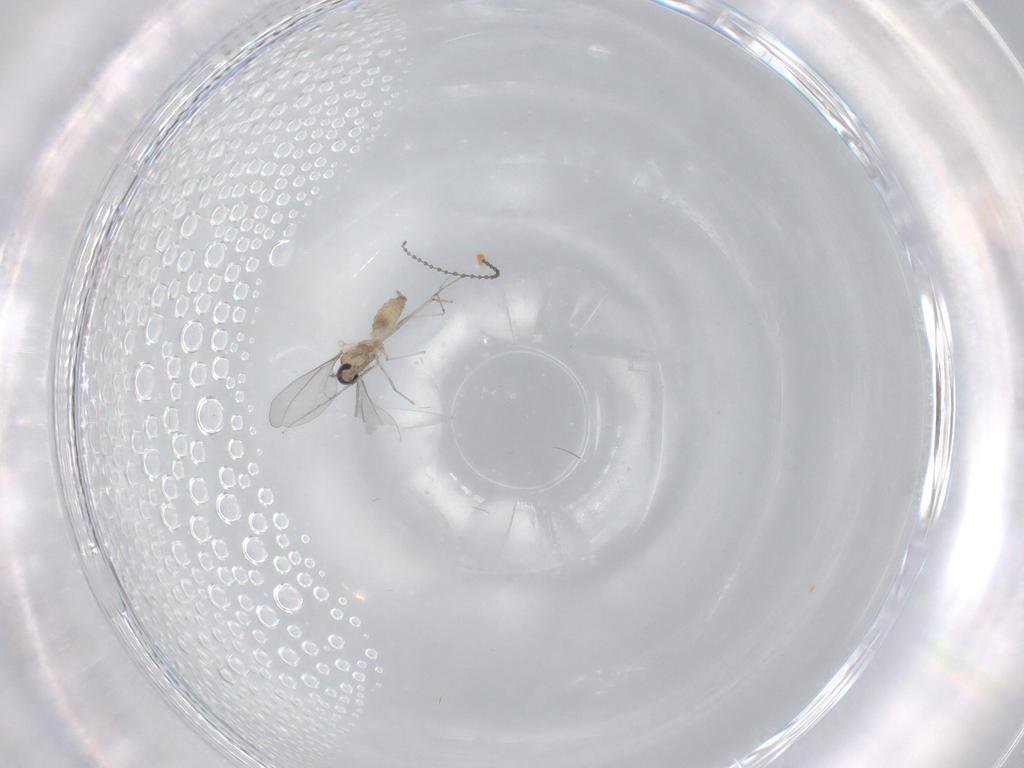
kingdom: Animalia
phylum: Arthropoda
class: Insecta
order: Diptera
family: Cecidomyiidae
